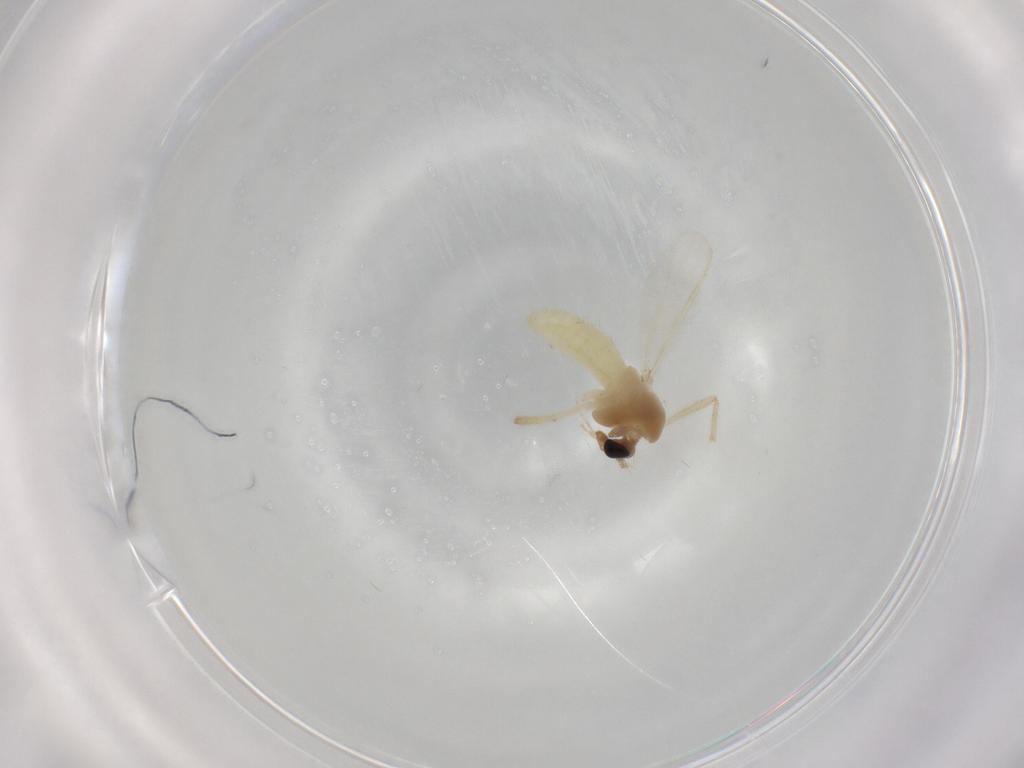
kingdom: Animalia
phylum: Arthropoda
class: Insecta
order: Diptera
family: Chironomidae
